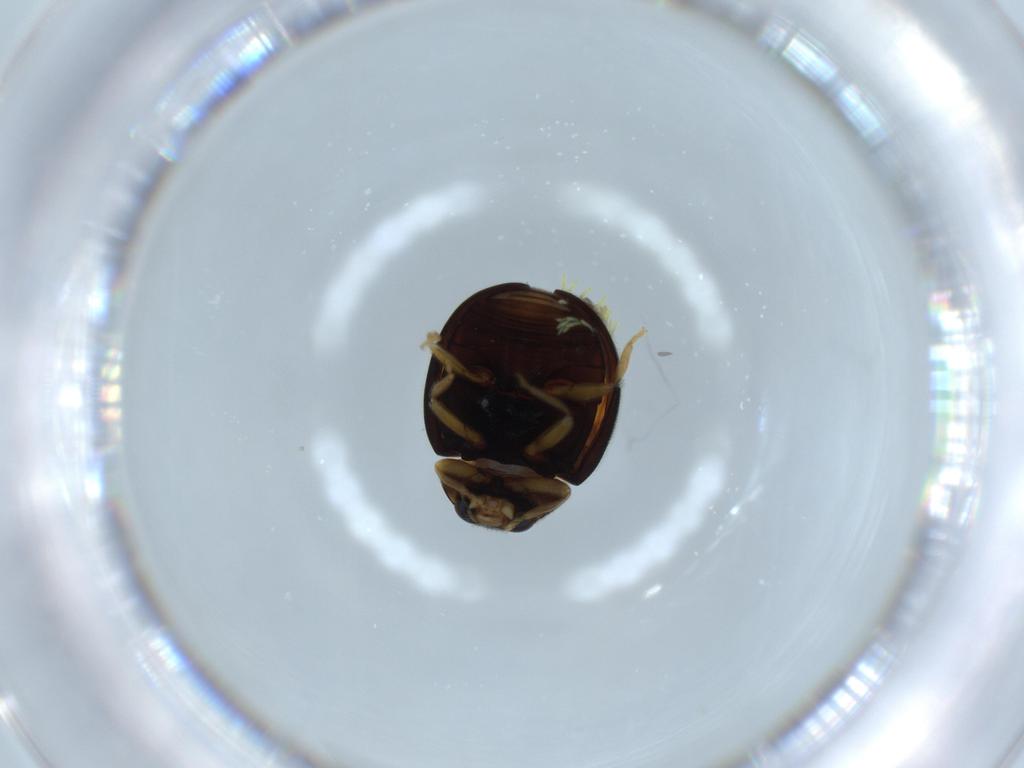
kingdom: Animalia
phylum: Arthropoda
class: Insecta
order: Coleoptera
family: Coccinellidae
